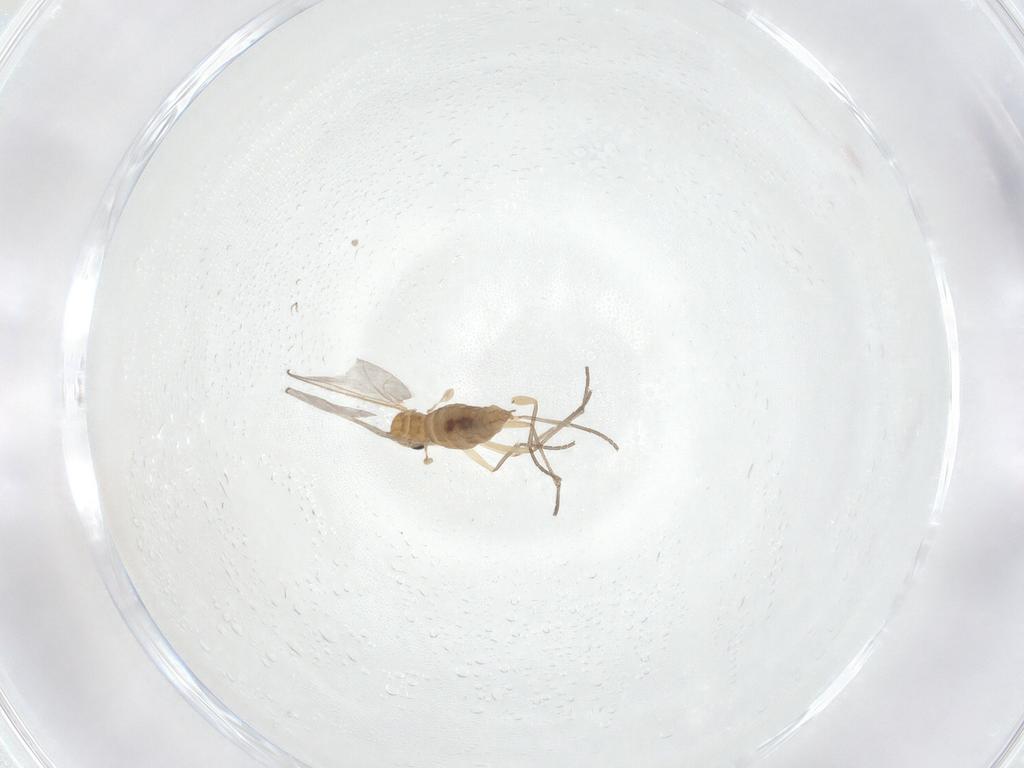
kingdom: Animalia
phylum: Arthropoda
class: Insecta
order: Diptera
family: Sciaridae
